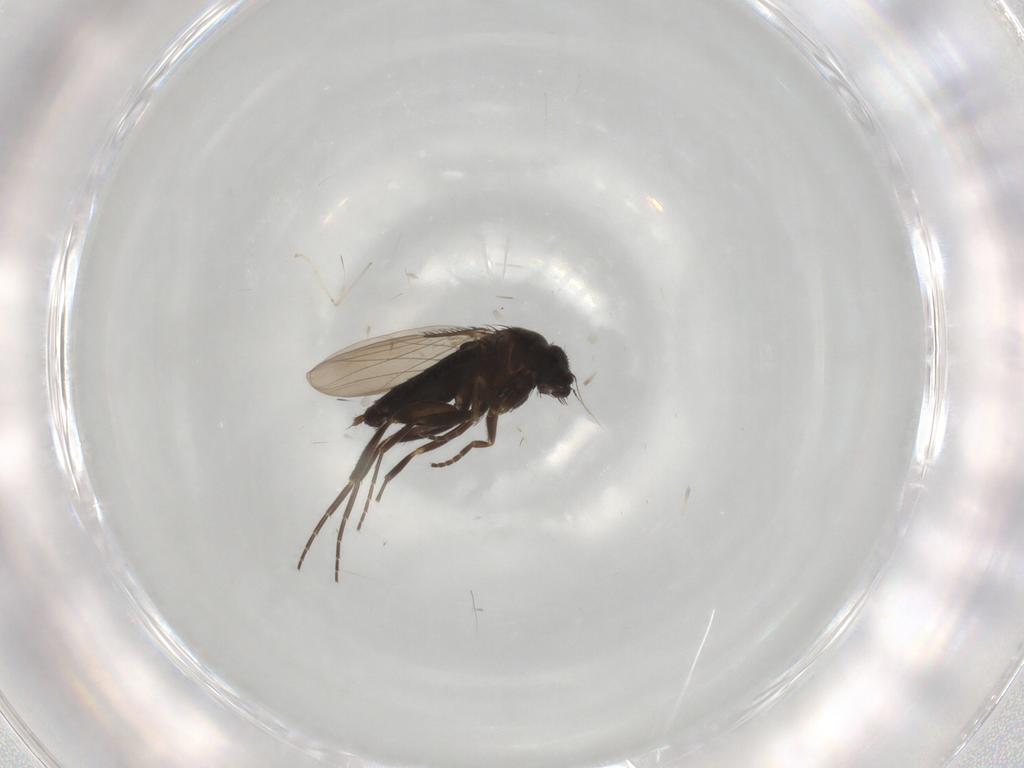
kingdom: Animalia
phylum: Arthropoda
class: Insecta
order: Diptera
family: Phoridae
